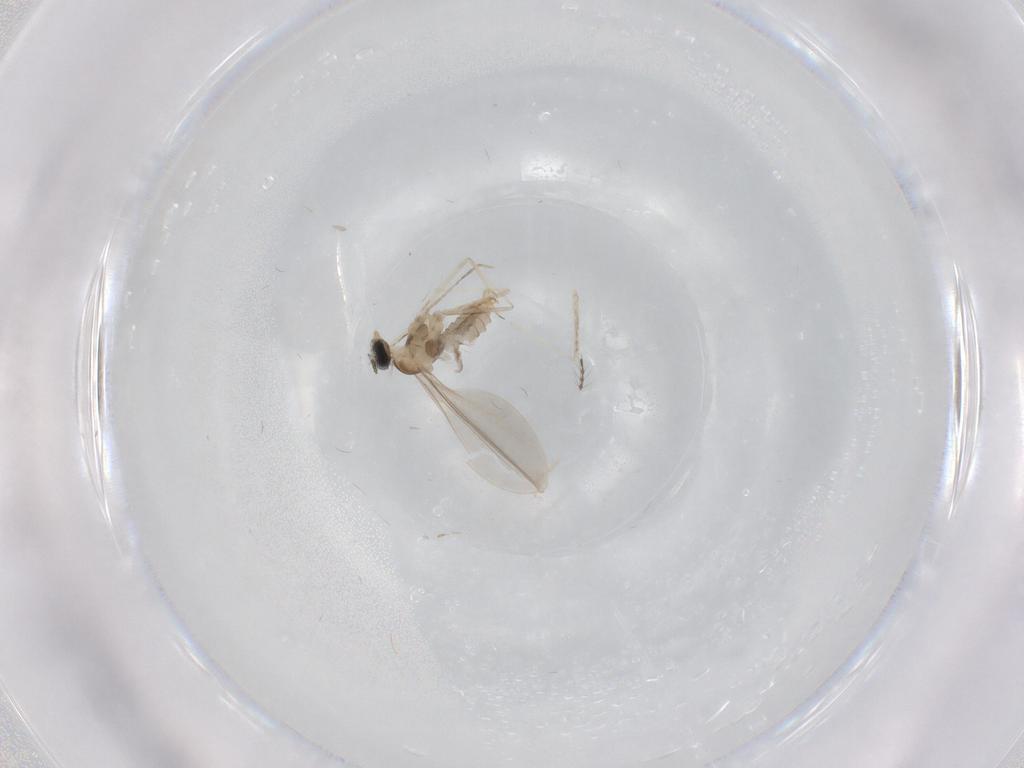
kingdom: Animalia
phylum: Arthropoda
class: Insecta
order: Diptera
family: Cecidomyiidae
